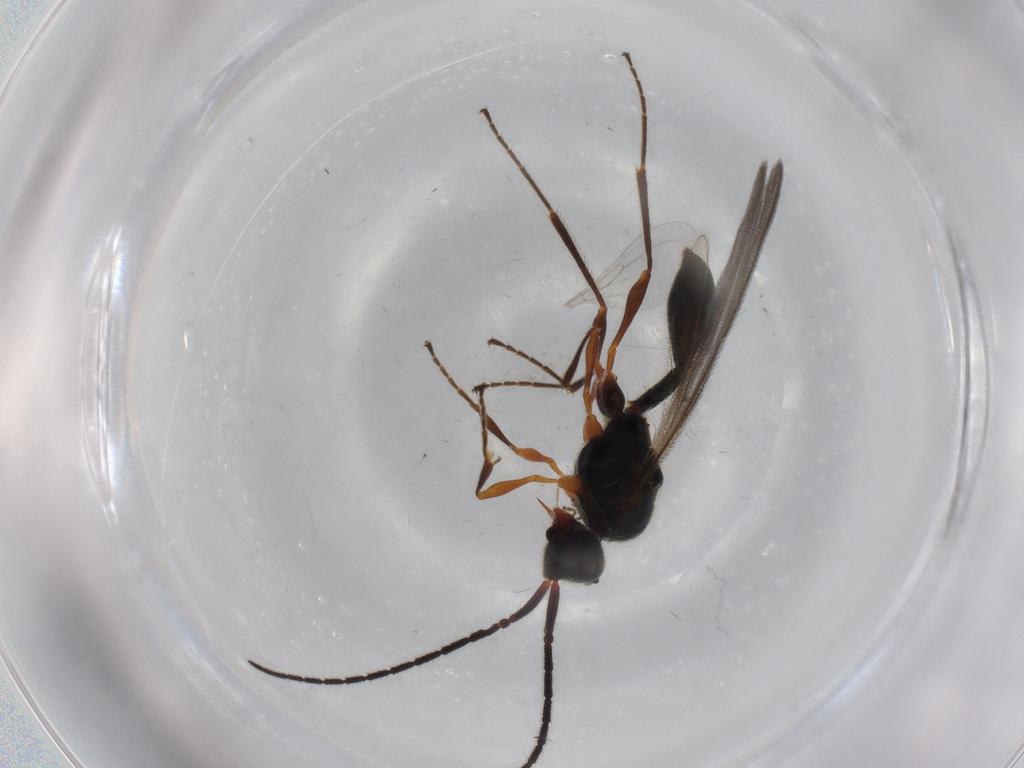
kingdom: Animalia
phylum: Arthropoda
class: Insecta
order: Hymenoptera
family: Diapriidae
